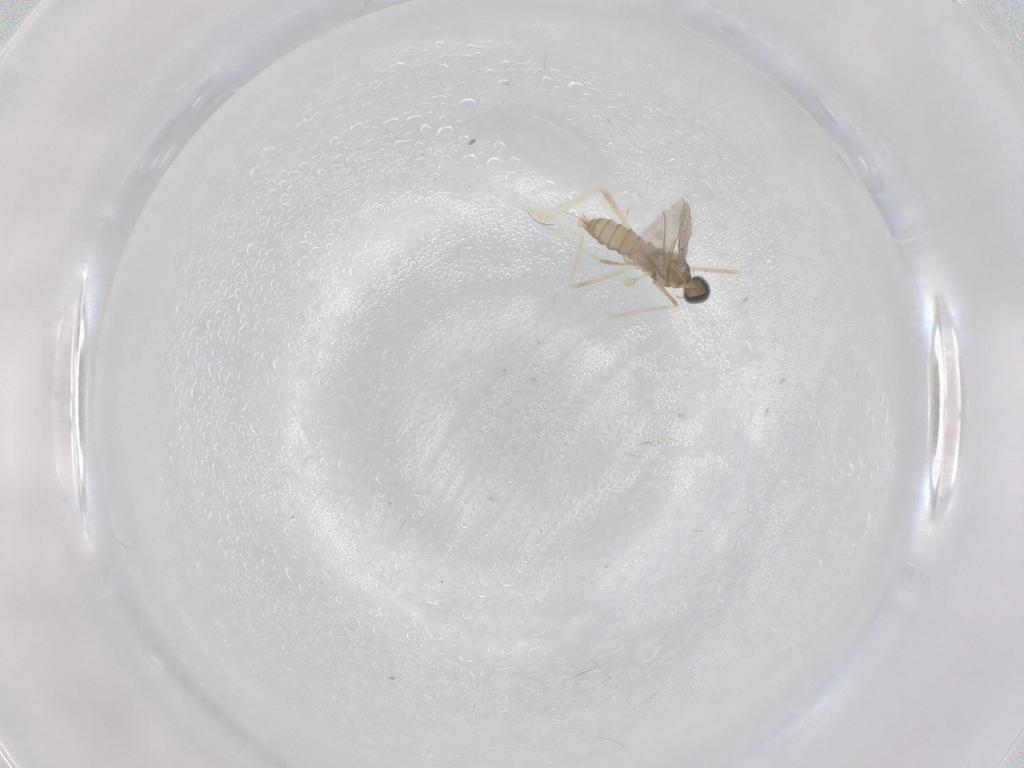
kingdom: Animalia
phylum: Arthropoda
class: Insecta
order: Diptera
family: Cecidomyiidae
